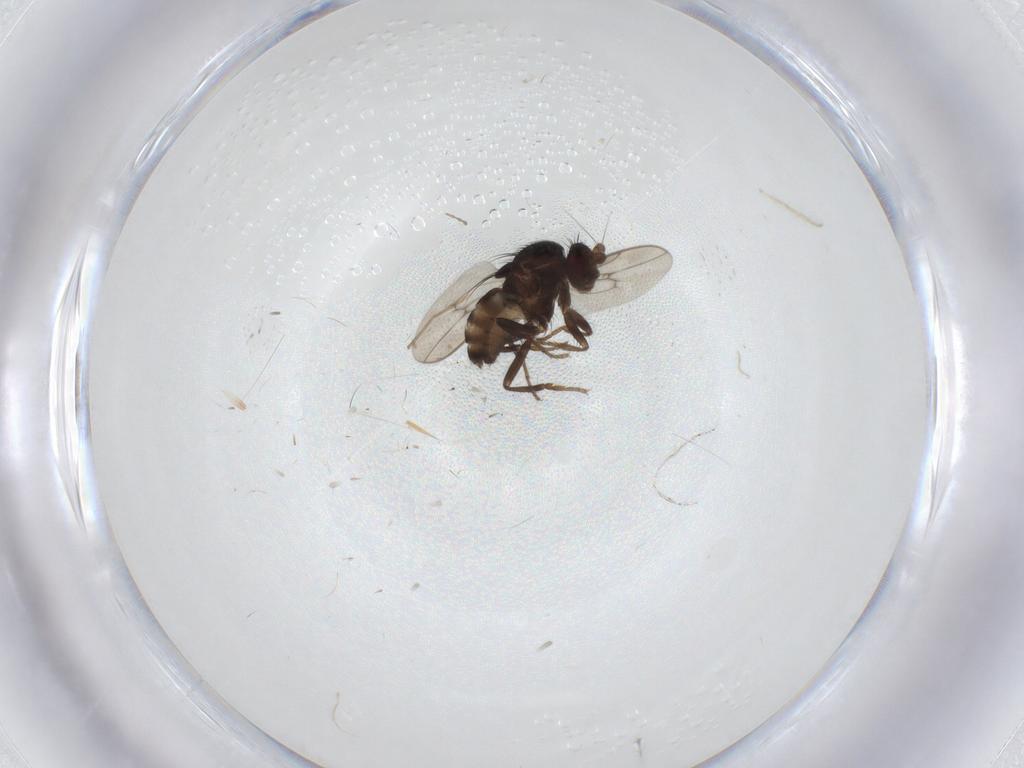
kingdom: Animalia
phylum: Arthropoda
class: Insecta
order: Diptera
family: Sphaeroceridae
